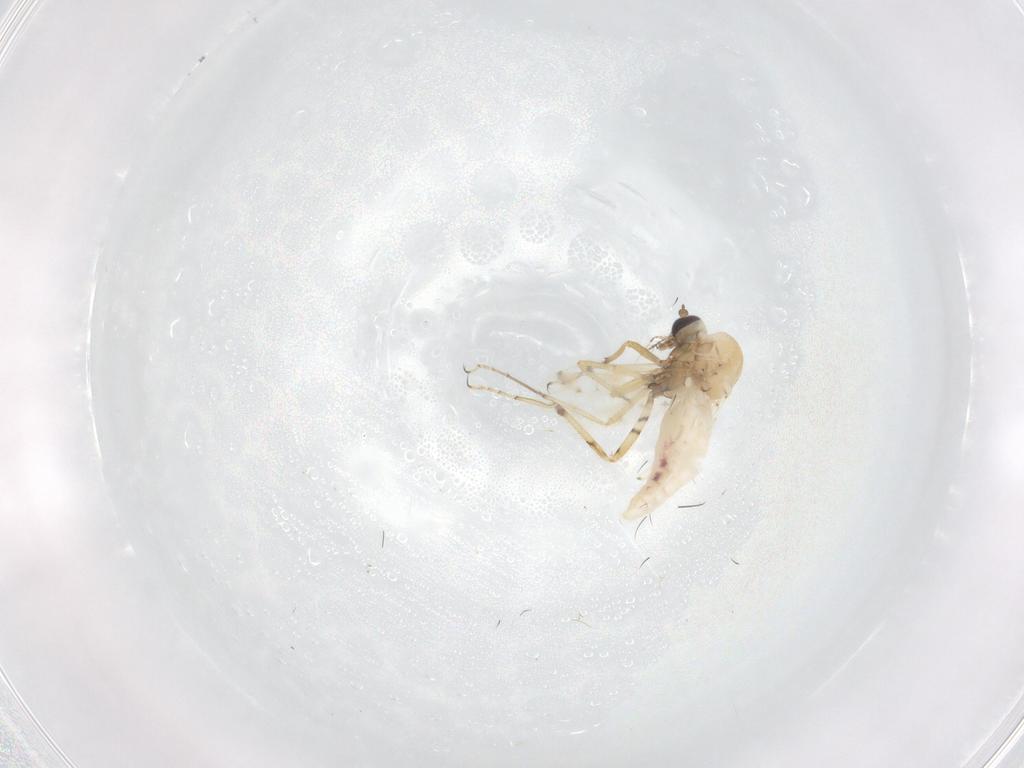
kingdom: Animalia
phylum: Arthropoda
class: Insecta
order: Diptera
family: Ceratopogonidae
